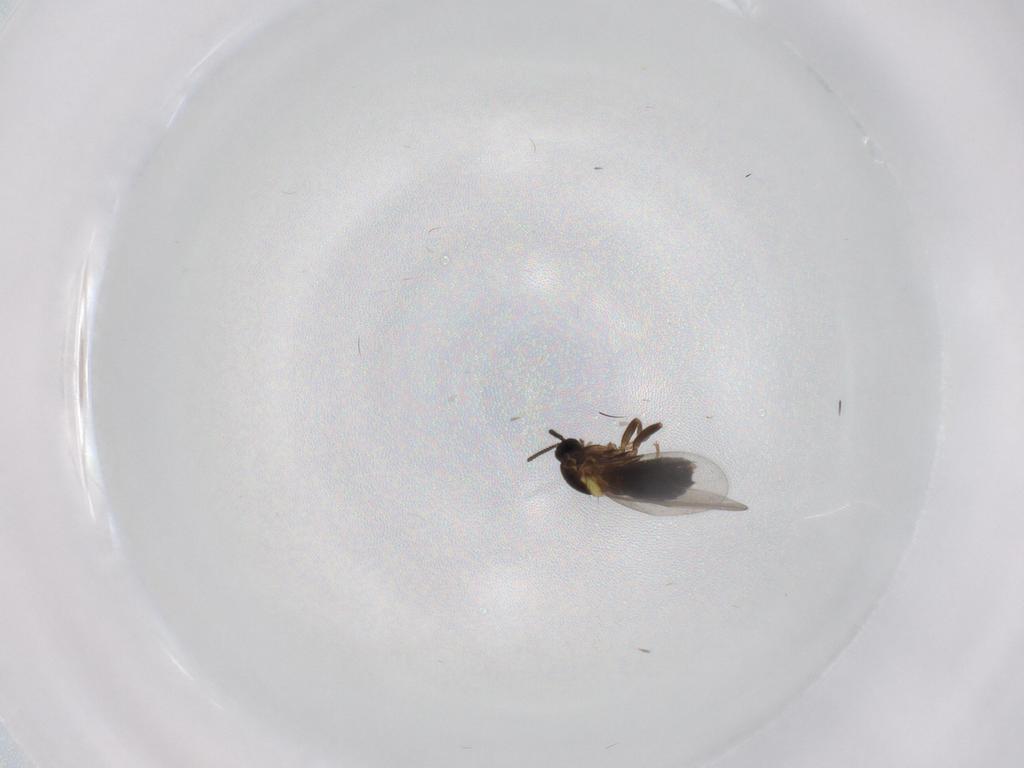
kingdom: Animalia
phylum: Arthropoda
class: Insecta
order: Diptera
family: Scatopsidae
